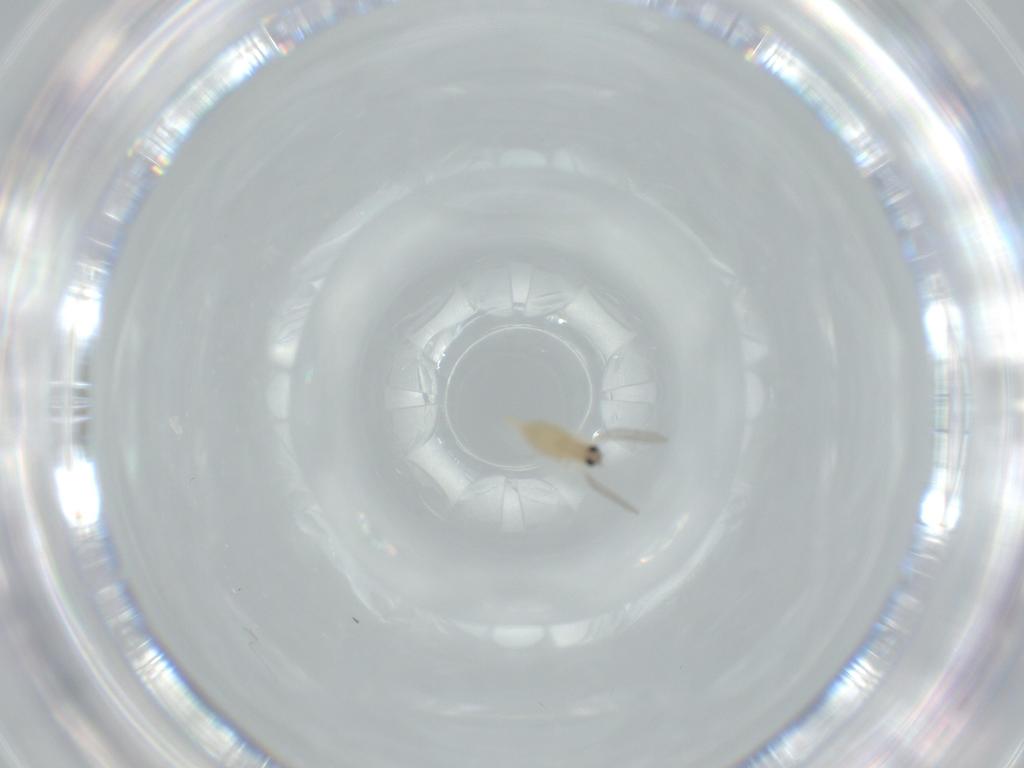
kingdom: Animalia
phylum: Arthropoda
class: Insecta
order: Diptera
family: Cecidomyiidae
